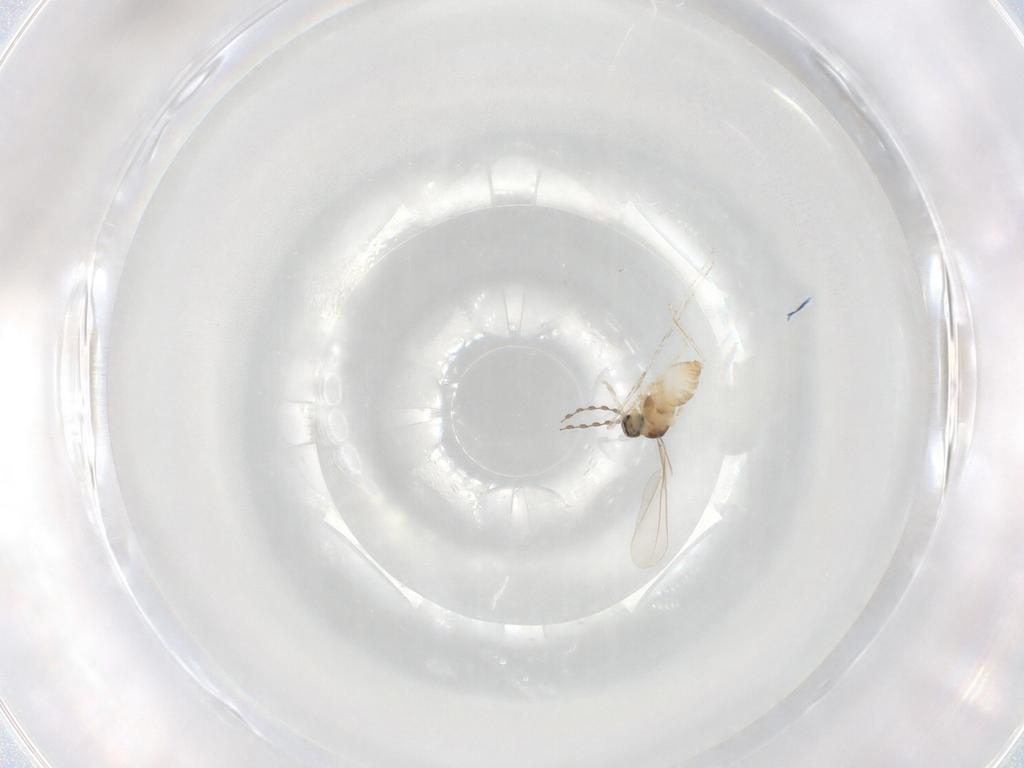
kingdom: Animalia
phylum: Arthropoda
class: Insecta
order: Diptera
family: Cecidomyiidae
